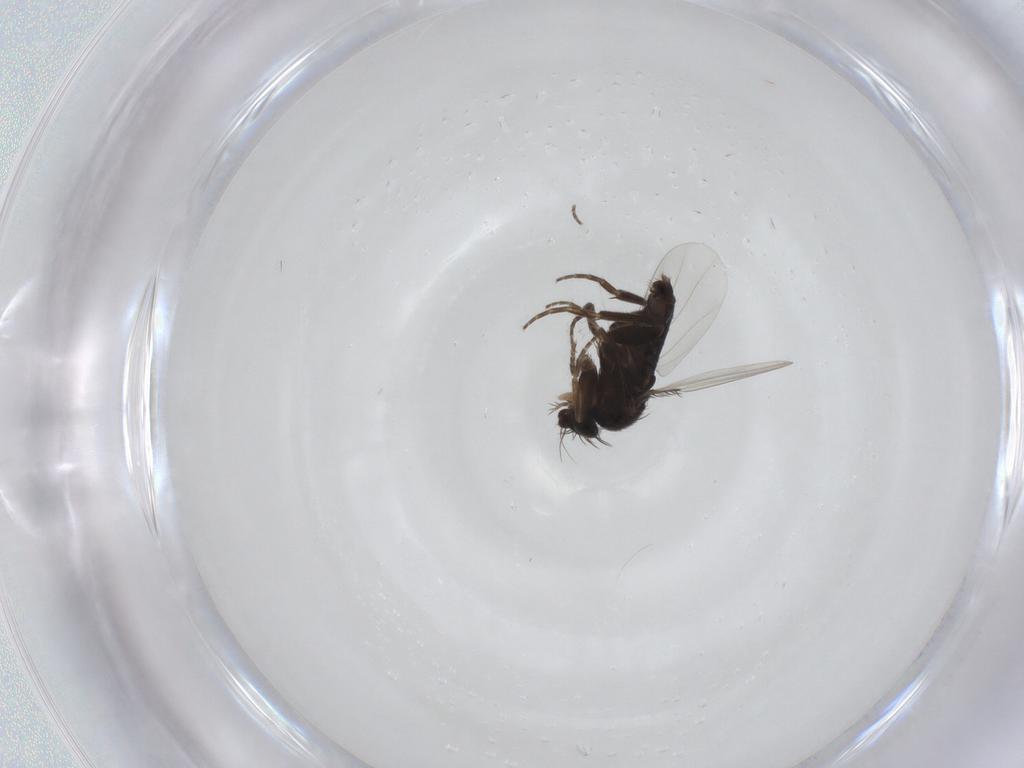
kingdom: Animalia
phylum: Arthropoda
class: Insecta
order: Diptera
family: Phoridae
